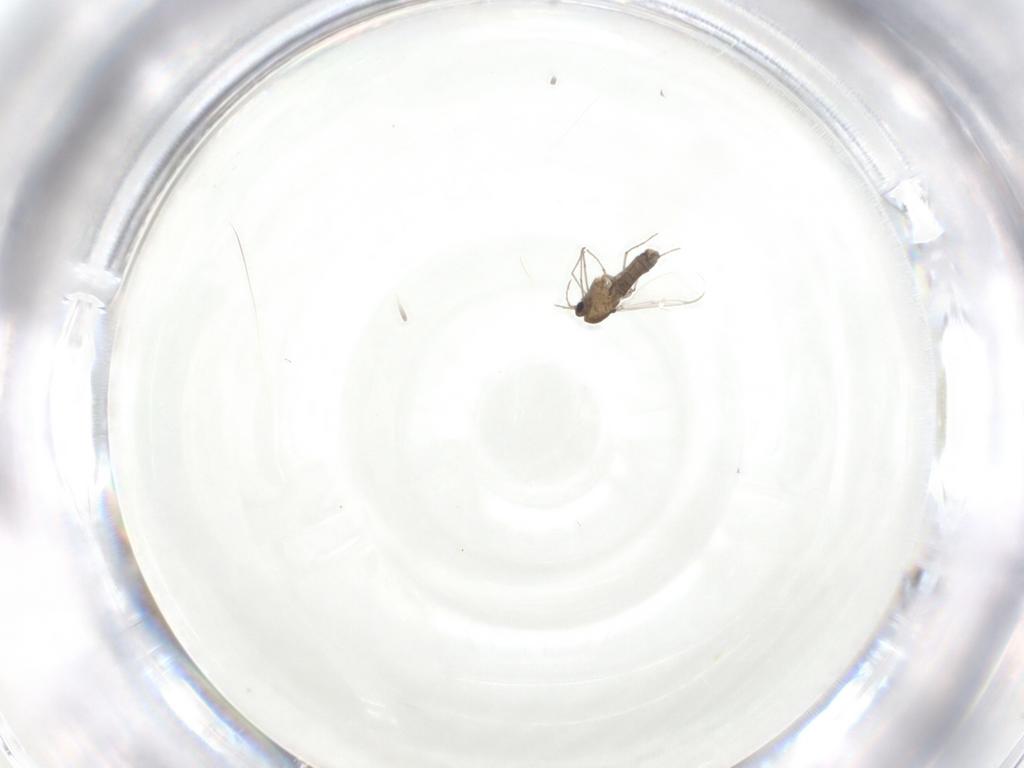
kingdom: Animalia
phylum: Arthropoda
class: Insecta
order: Diptera
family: Chironomidae
